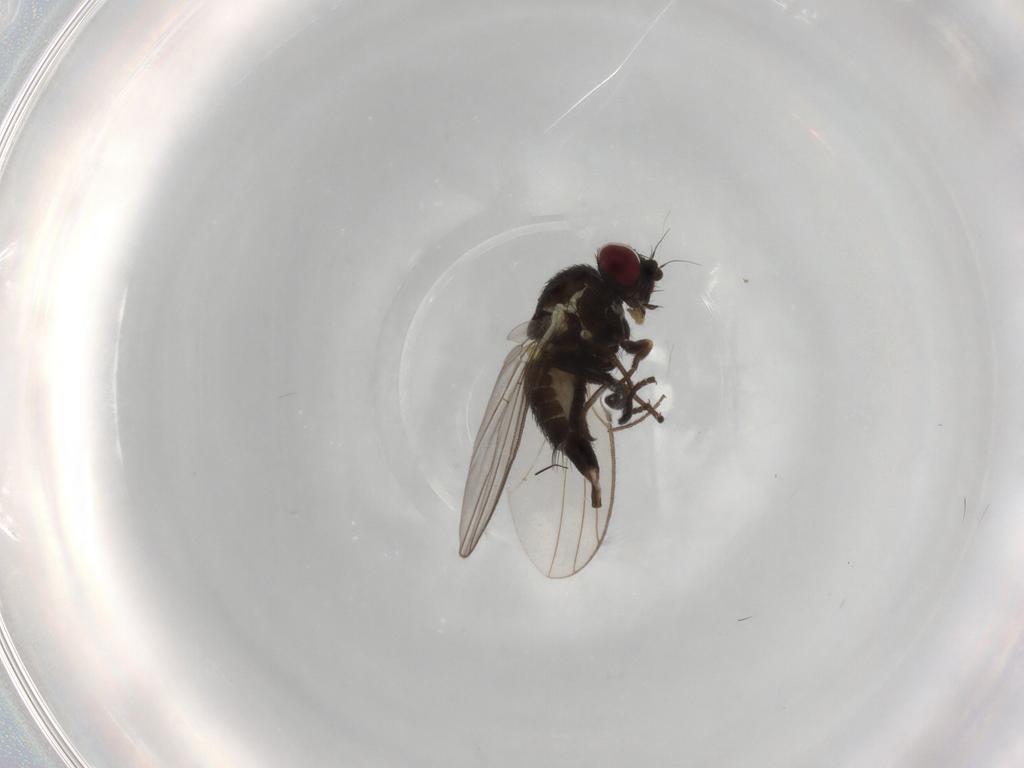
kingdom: Animalia
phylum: Arthropoda
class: Insecta
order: Diptera
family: Agromyzidae
